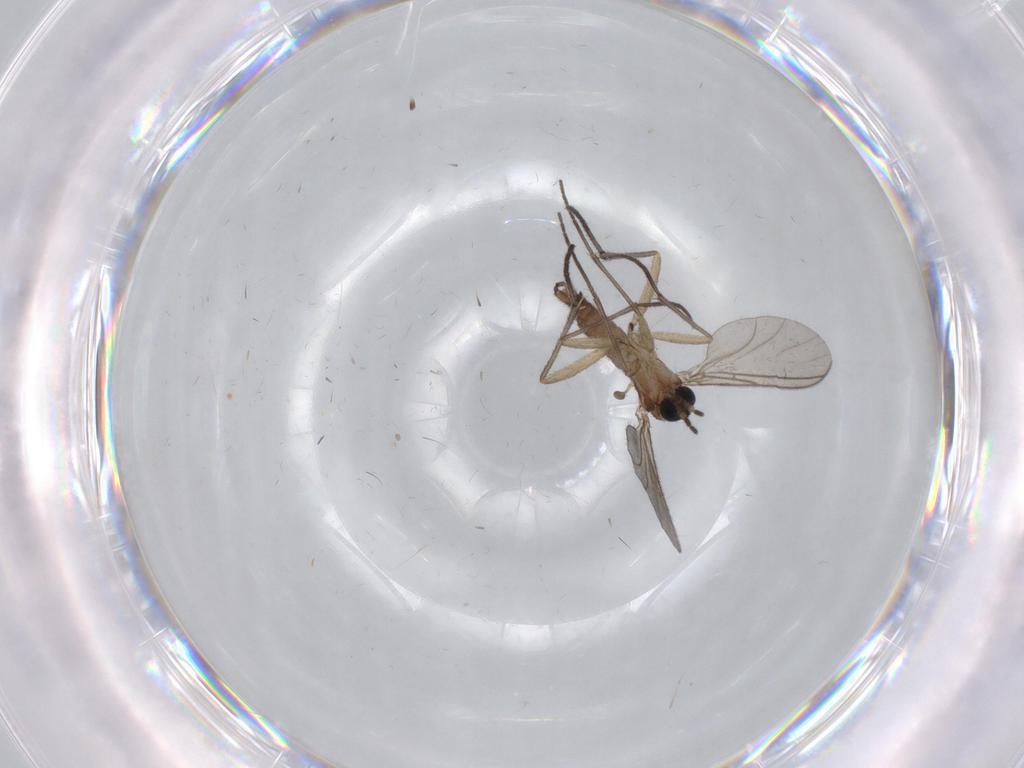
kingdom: Animalia
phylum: Arthropoda
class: Insecta
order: Diptera
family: Sciaridae
